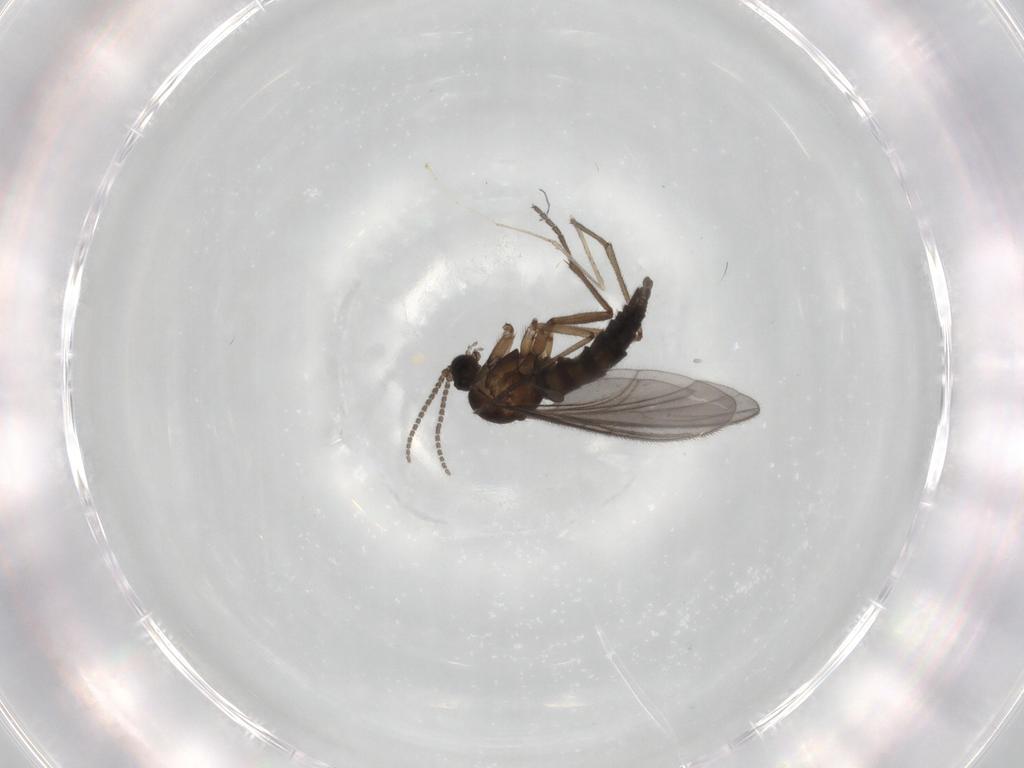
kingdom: Animalia
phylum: Arthropoda
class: Insecta
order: Diptera
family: Sciaridae
